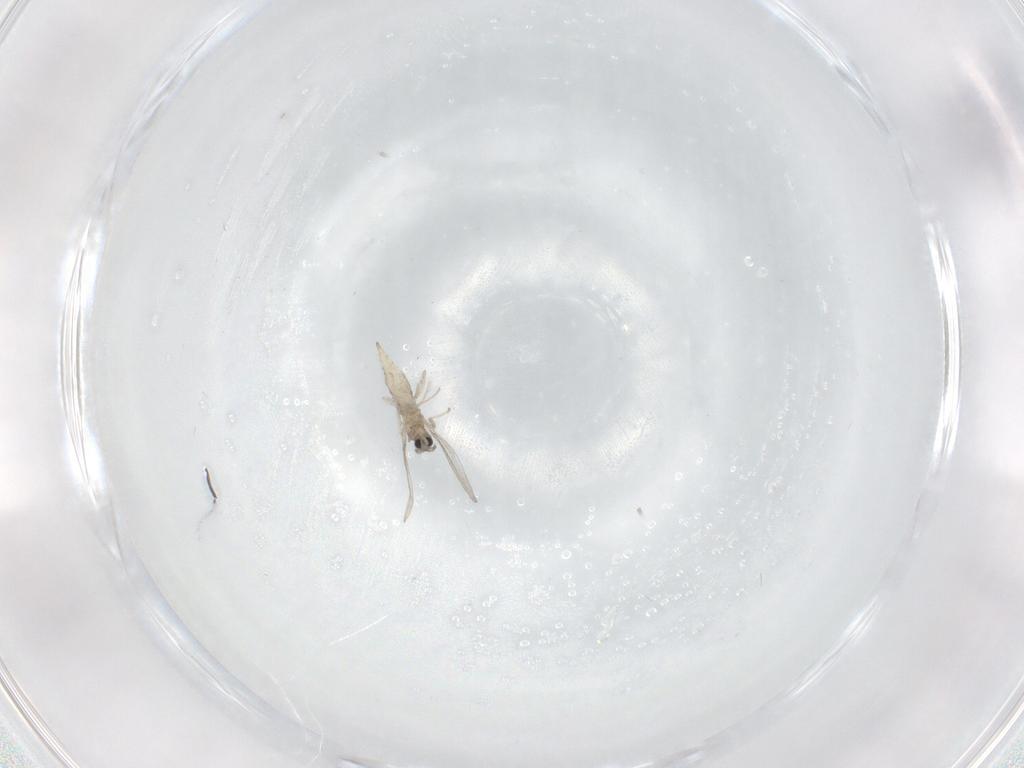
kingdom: Animalia
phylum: Arthropoda
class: Insecta
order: Diptera
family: Cecidomyiidae
